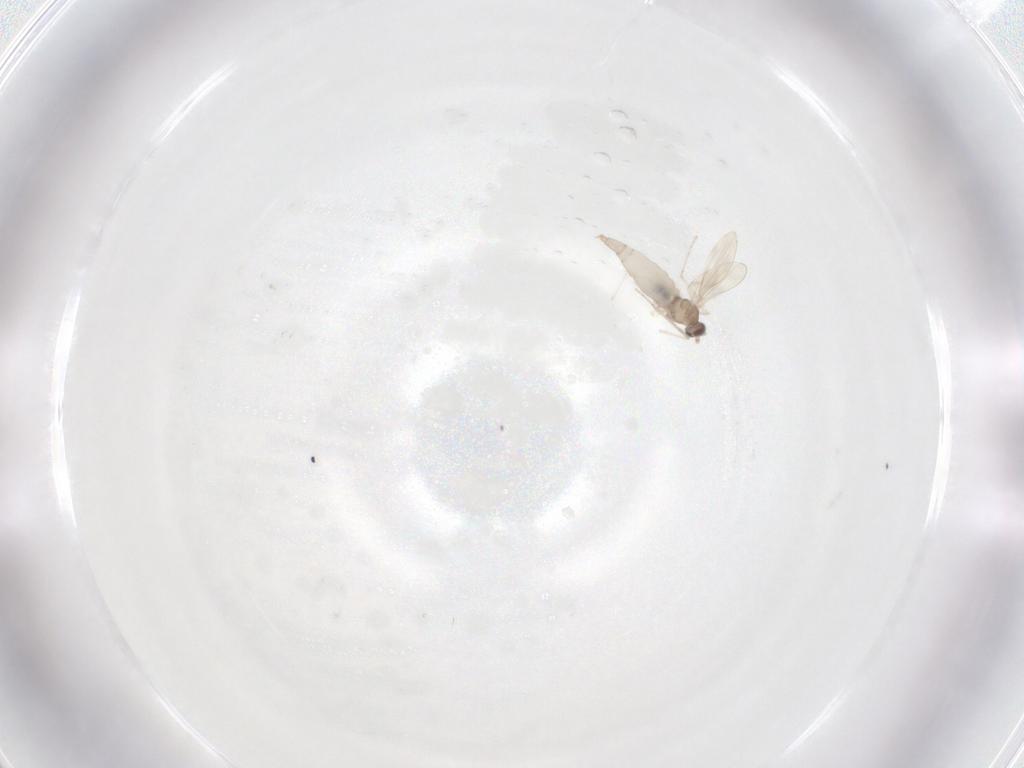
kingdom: Animalia
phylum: Arthropoda
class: Insecta
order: Diptera
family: Cecidomyiidae
